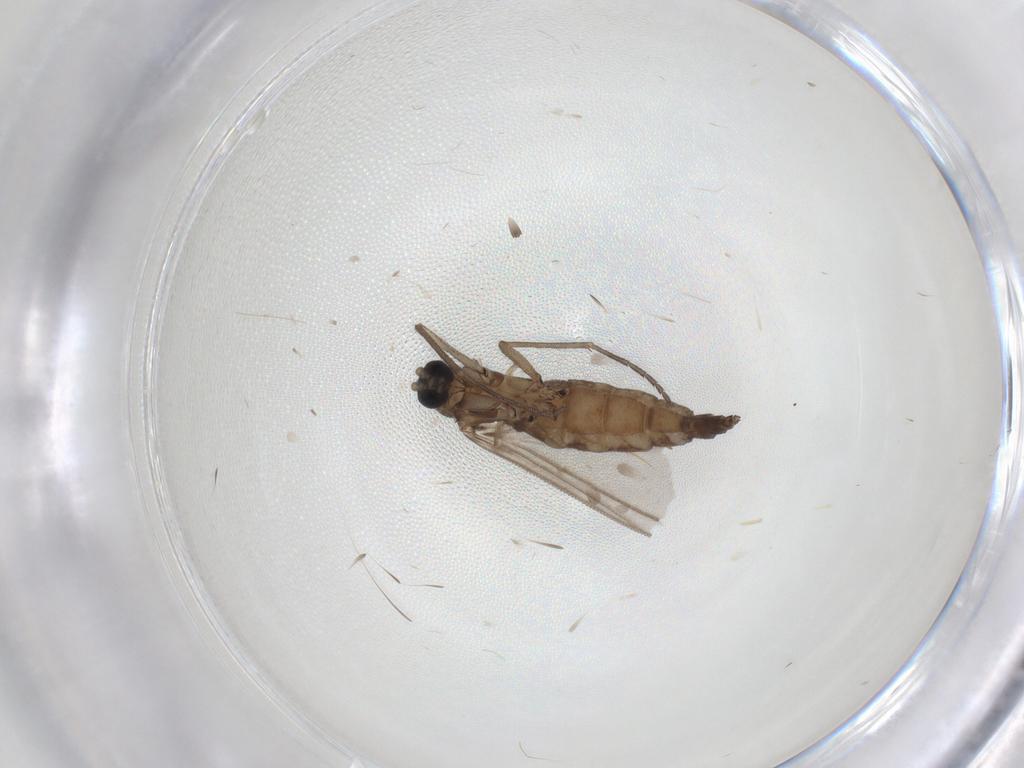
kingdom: Animalia
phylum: Arthropoda
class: Insecta
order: Diptera
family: Sciaridae
